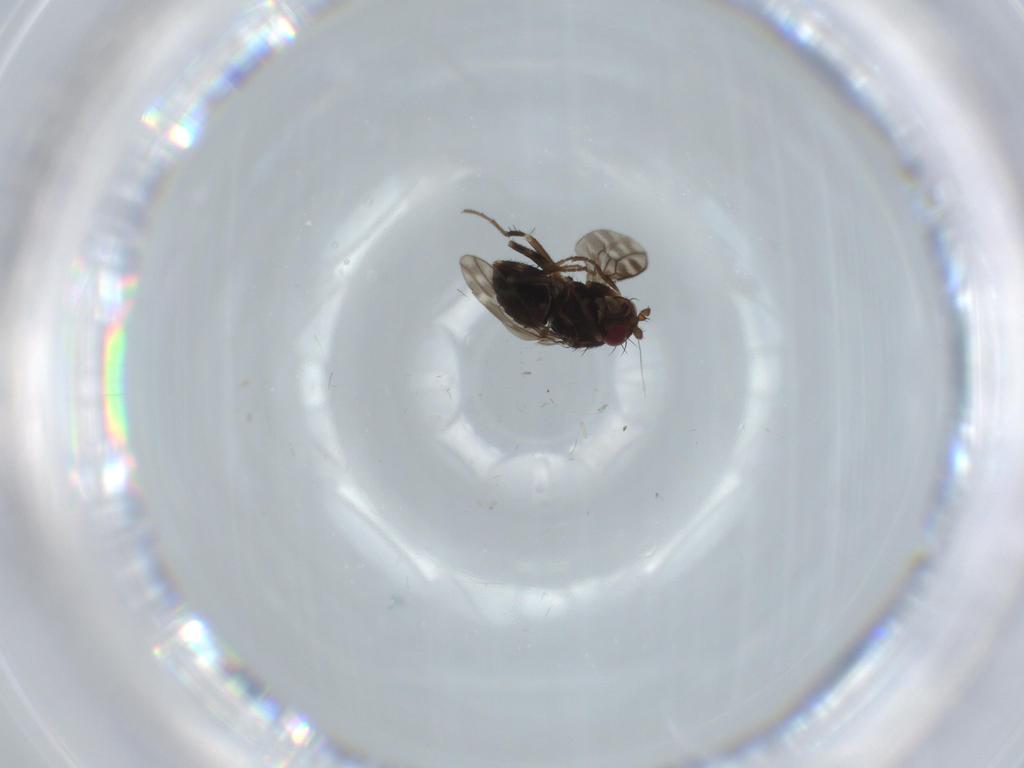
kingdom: Animalia
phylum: Arthropoda
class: Insecta
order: Diptera
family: Sphaeroceridae
